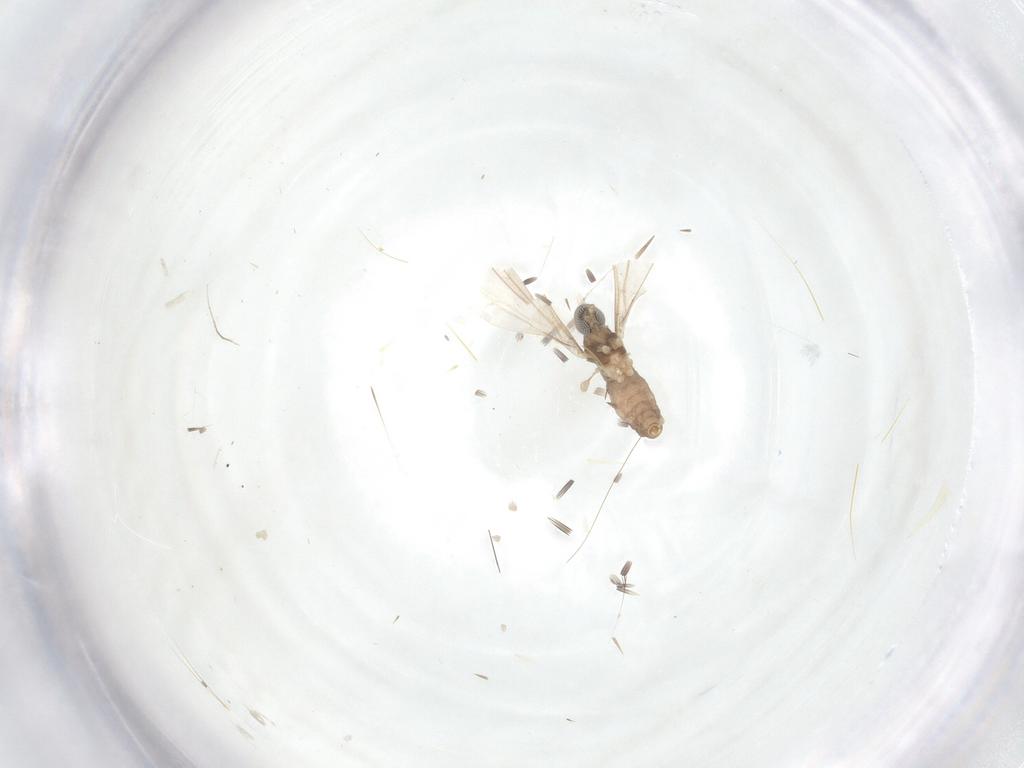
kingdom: Animalia
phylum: Arthropoda
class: Insecta
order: Diptera
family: Cecidomyiidae
